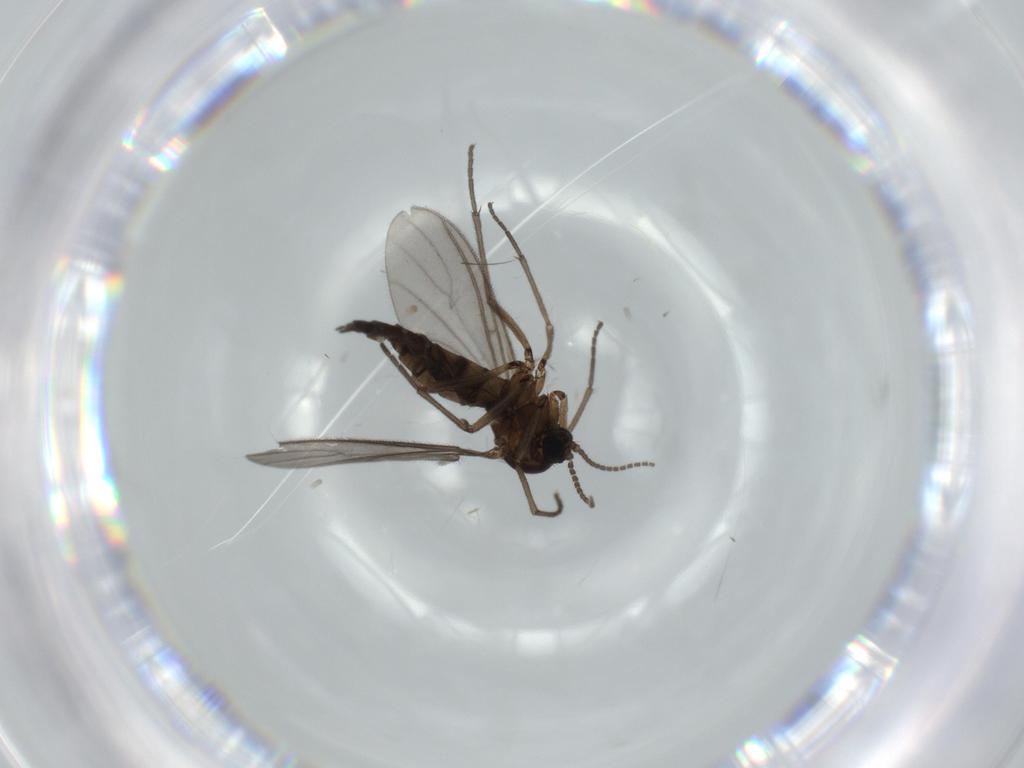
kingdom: Animalia
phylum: Arthropoda
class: Insecta
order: Diptera
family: Sciaridae
